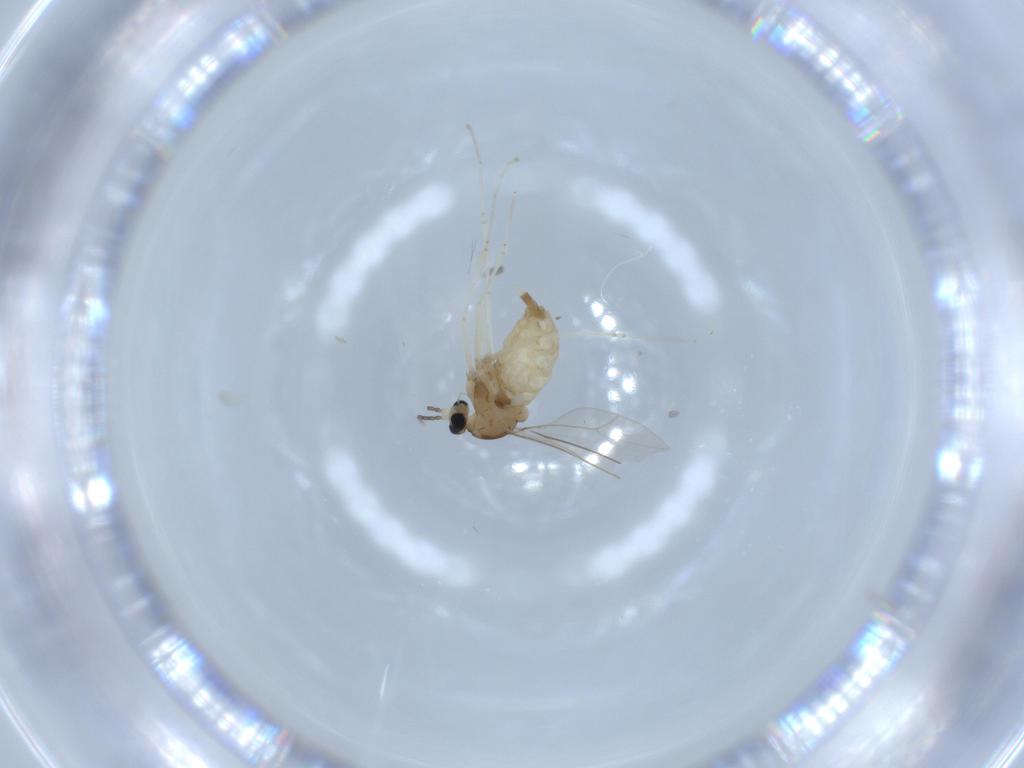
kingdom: Animalia
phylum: Arthropoda
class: Insecta
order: Diptera
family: Cecidomyiidae
